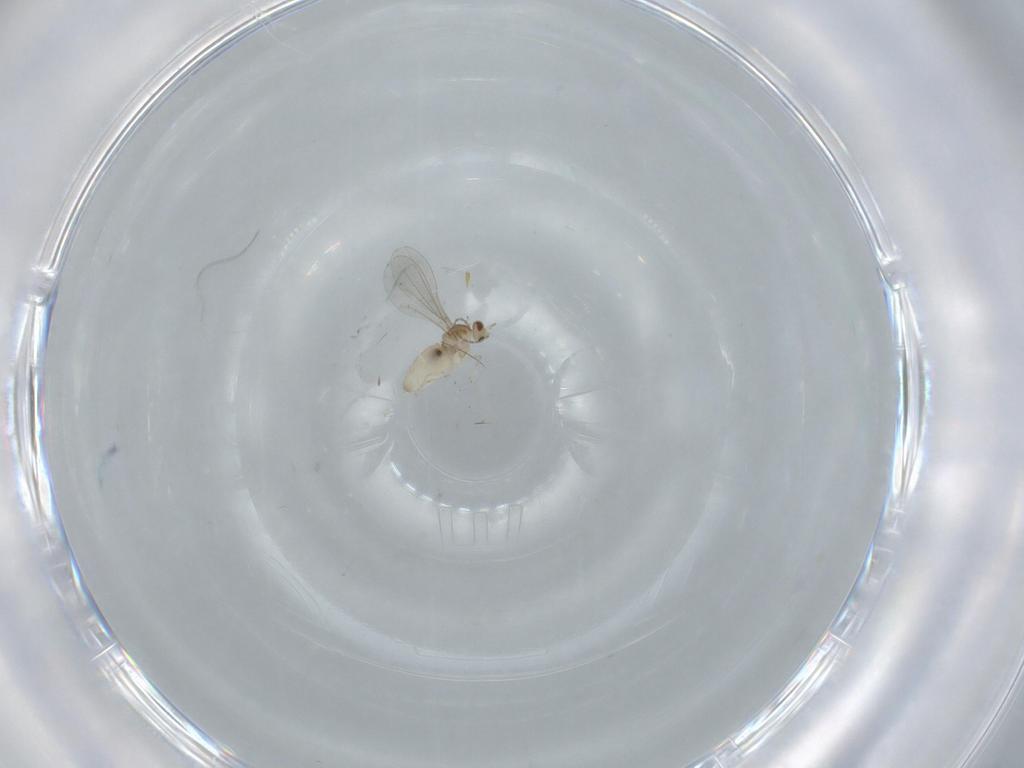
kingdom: Animalia
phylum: Arthropoda
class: Insecta
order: Diptera
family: Cecidomyiidae
